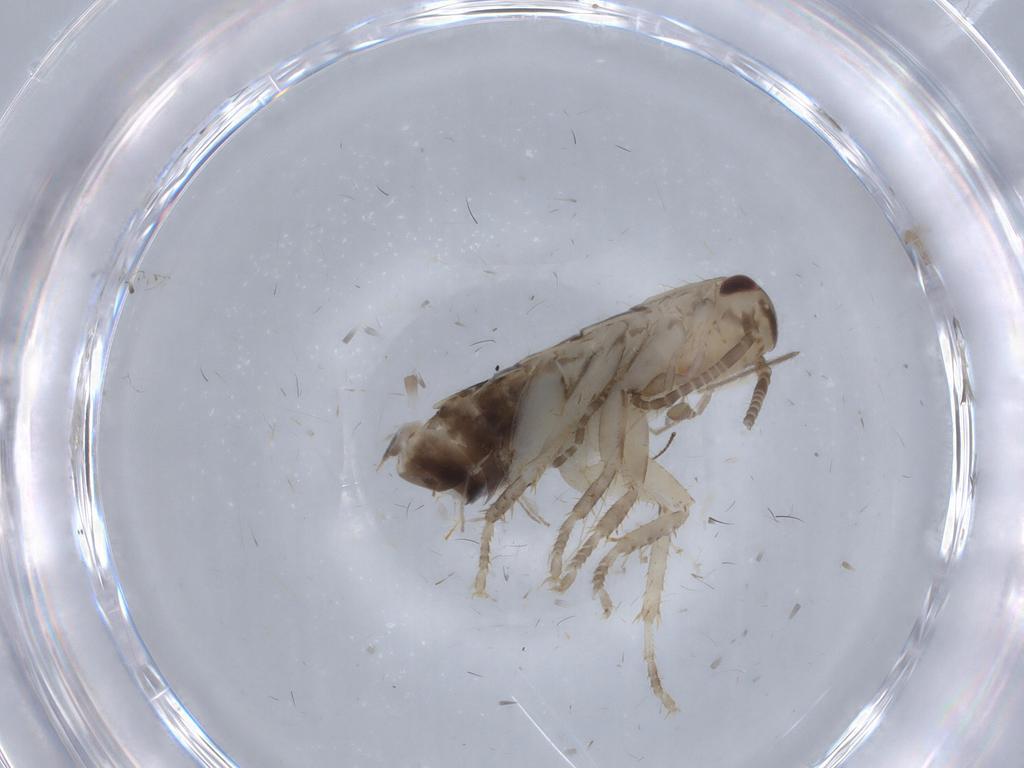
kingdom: Animalia
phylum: Arthropoda
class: Insecta
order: Blattodea
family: Ectobiidae
